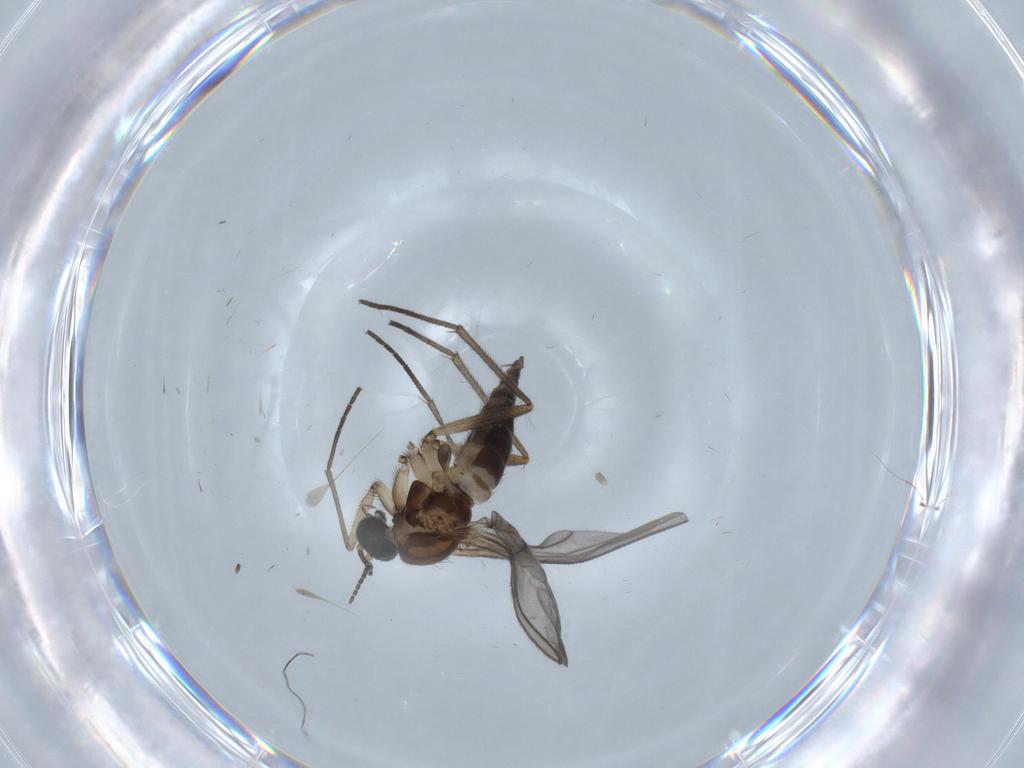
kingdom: Animalia
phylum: Arthropoda
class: Insecta
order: Diptera
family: Sciaridae
